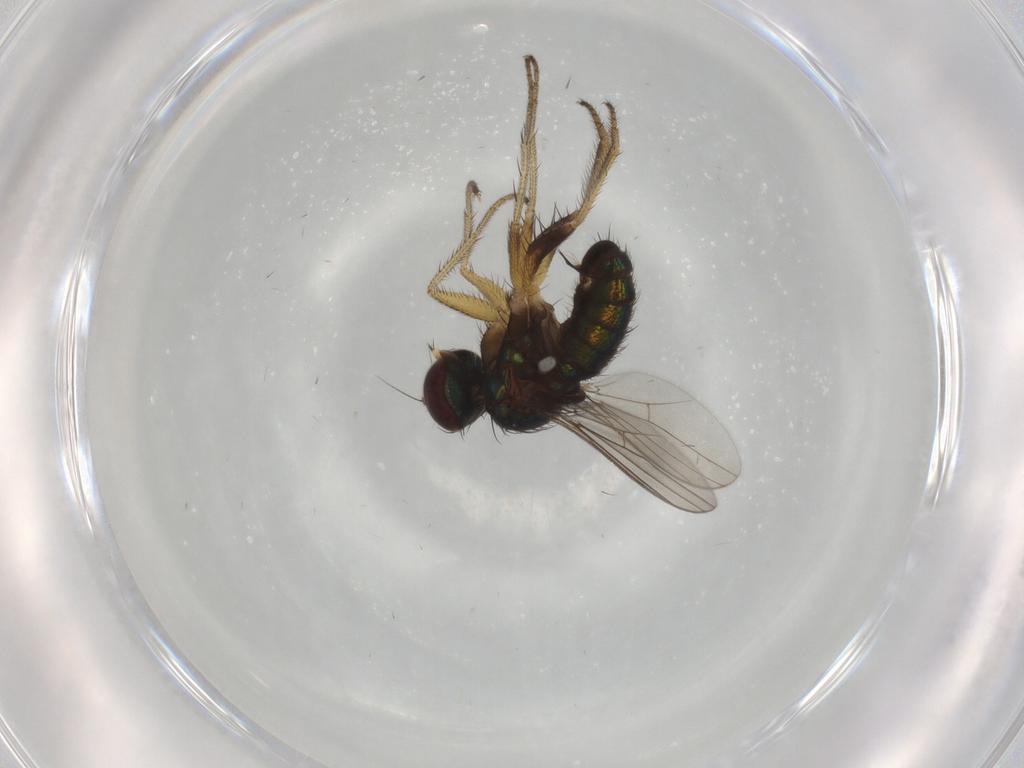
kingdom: Animalia
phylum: Arthropoda
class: Insecta
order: Diptera
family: Dolichopodidae
